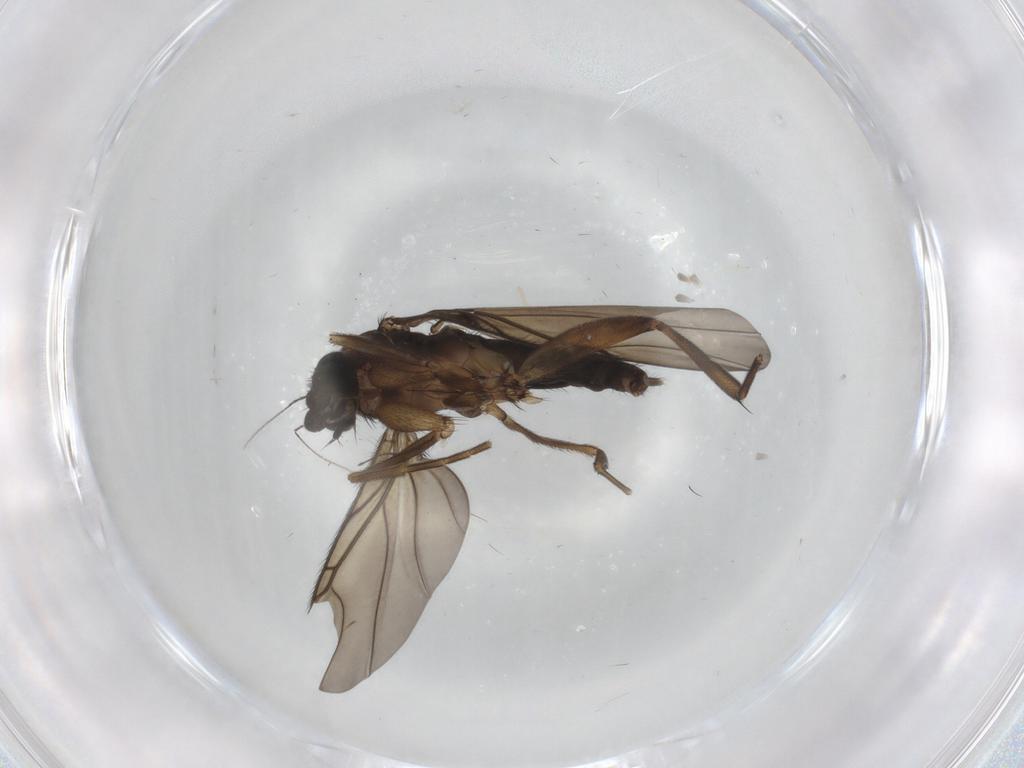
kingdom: Animalia
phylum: Arthropoda
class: Insecta
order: Diptera
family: Phoridae
